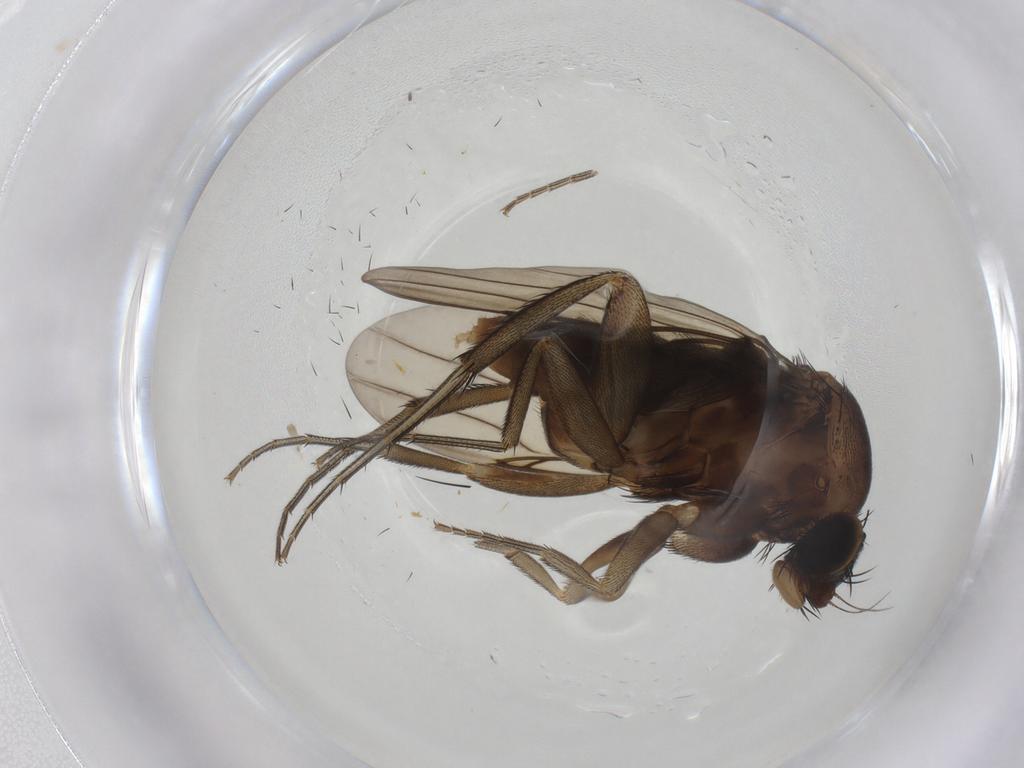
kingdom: Animalia
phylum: Arthropoda
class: Insecta
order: Diptera
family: Phoridae
